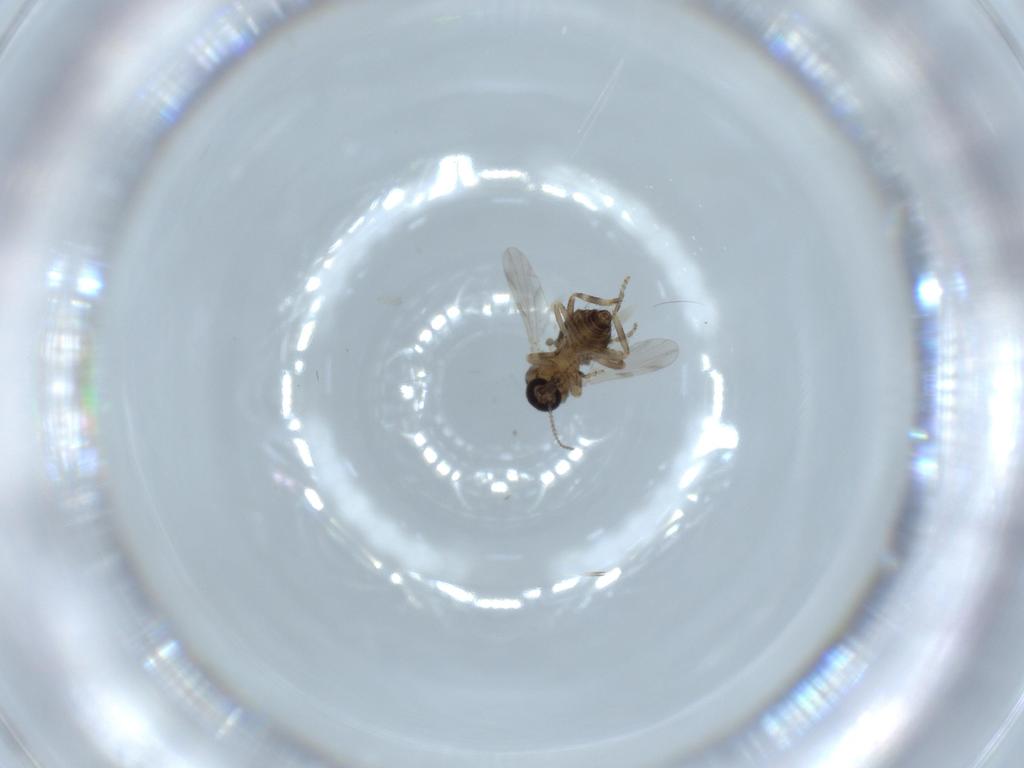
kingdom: Animalia
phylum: Arthropoda
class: Insecta
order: Diptera
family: Ceratopogonidae
